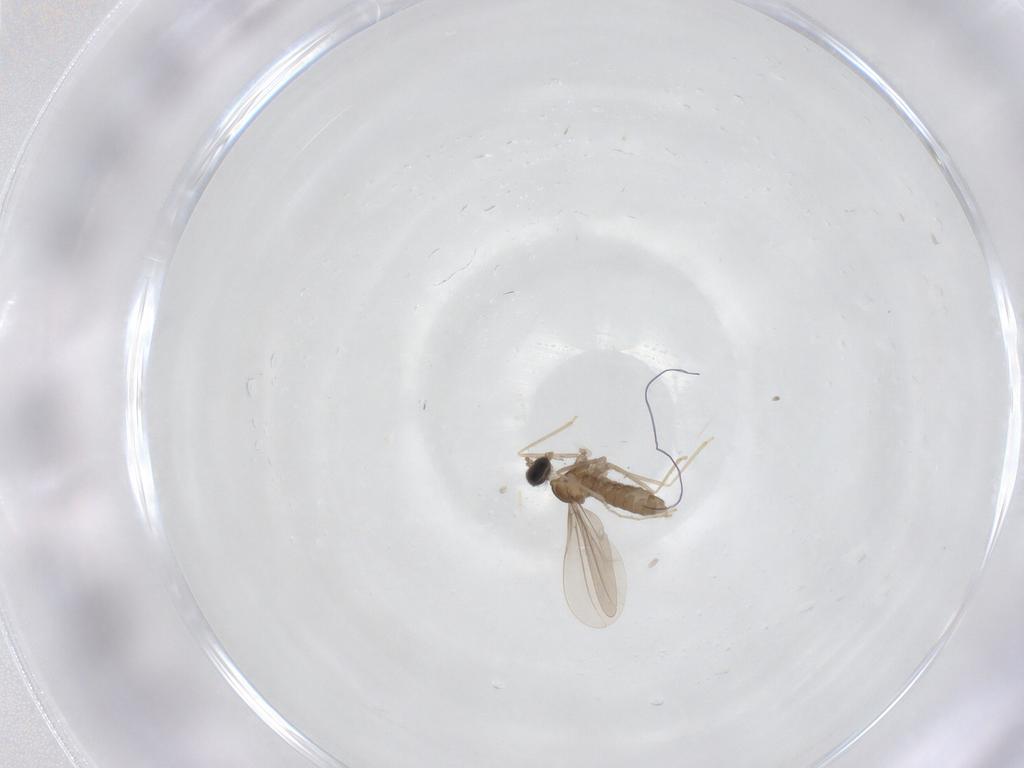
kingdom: Animalia
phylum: Arthropoda
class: Insecta
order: Diptera
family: Cecidomyiidae
